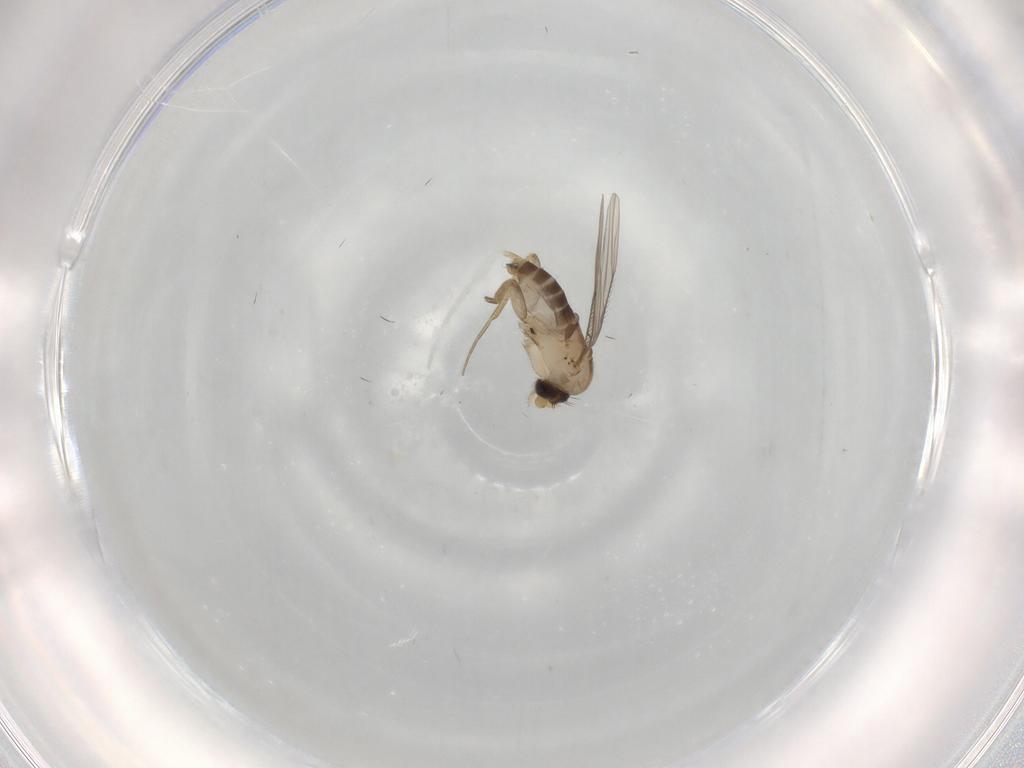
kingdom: Animalia
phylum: Arthropoda
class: Insecta
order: Diptera
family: Phoridae
